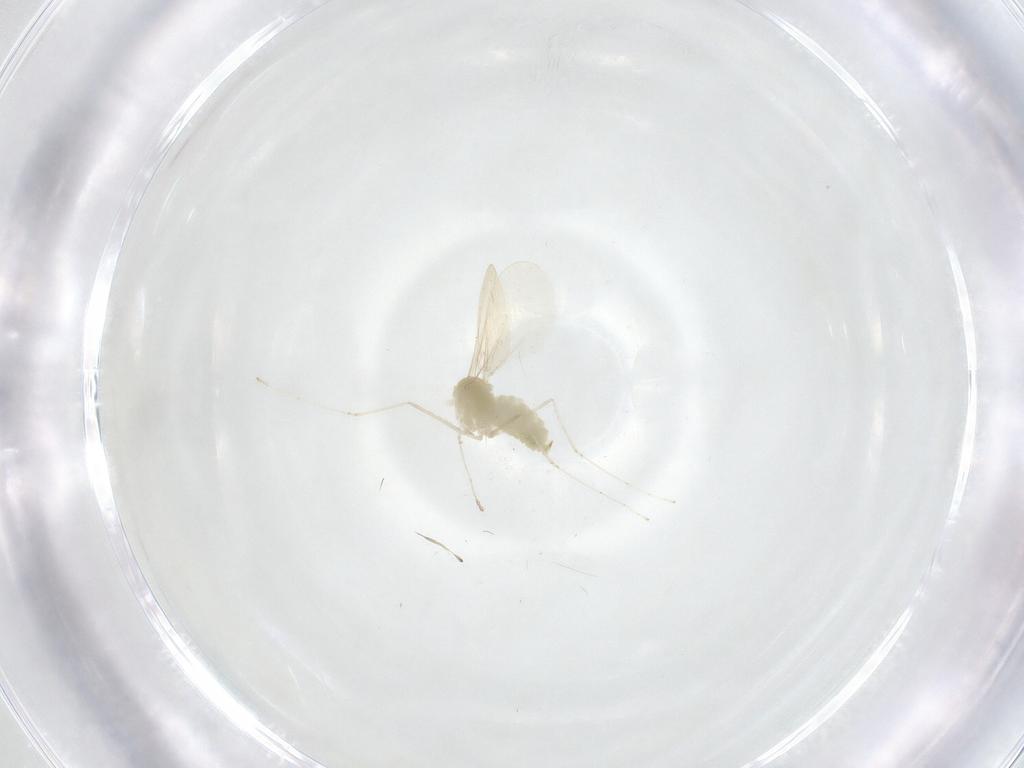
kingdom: Animalia
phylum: Arthropoda
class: Insecta
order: Diptera
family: Cecidomyiidae
